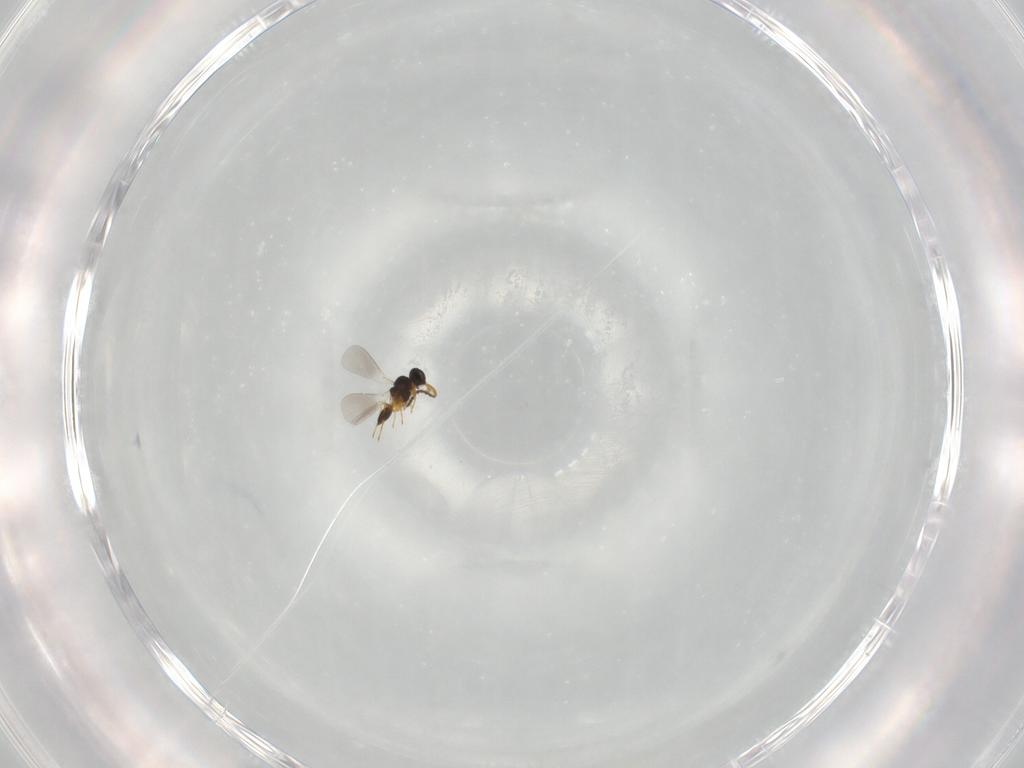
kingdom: Animalia
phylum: Arthropoda
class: Insecta
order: Hymenoptera
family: Platygastridae
